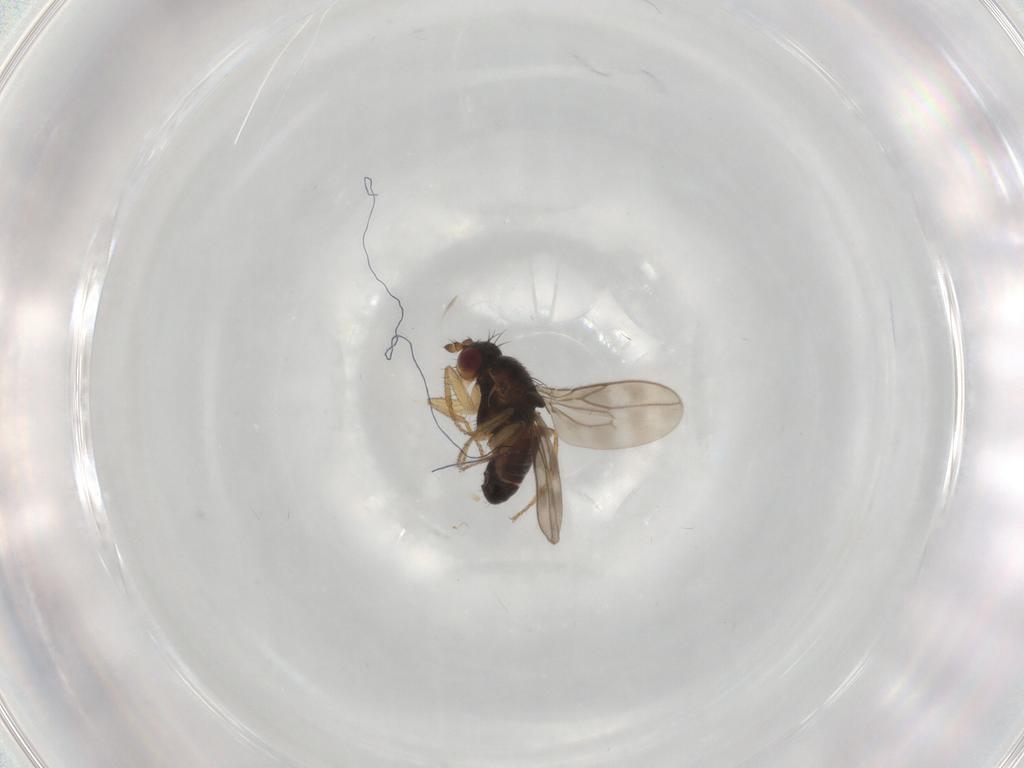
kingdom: Animalia
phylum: Arthropoda
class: Insecta
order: Diptera
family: Sphaeroceridae
